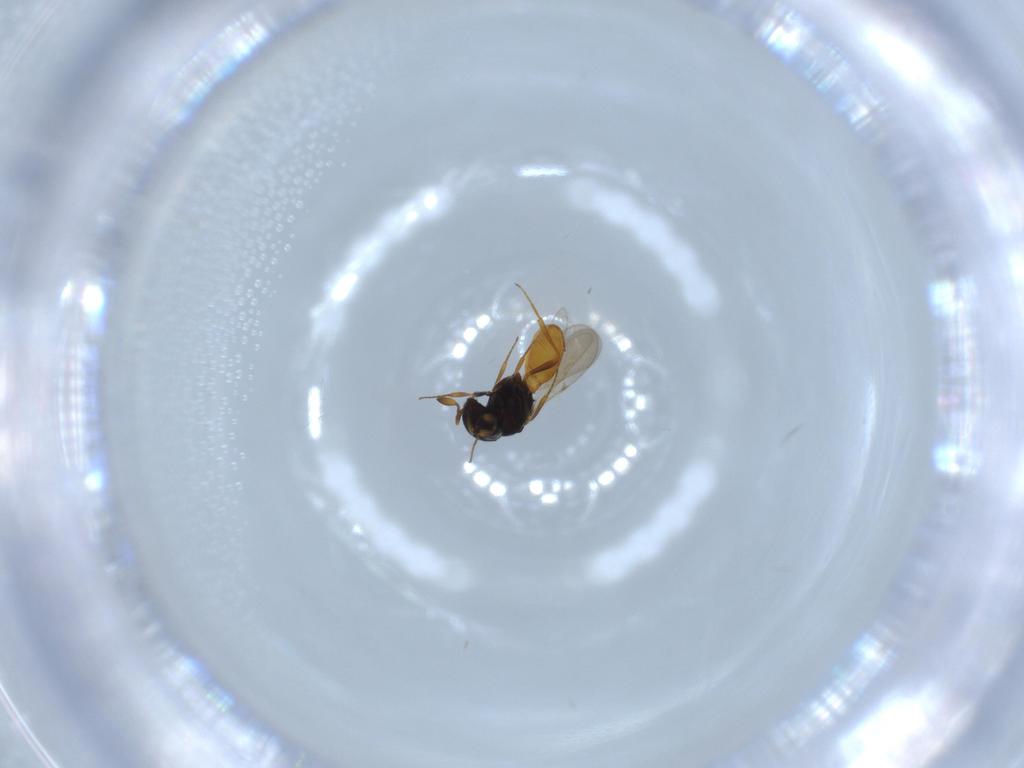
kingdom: Animalia
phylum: Arthropoda
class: Insecta
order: Hymenoptera
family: Scelionidae
